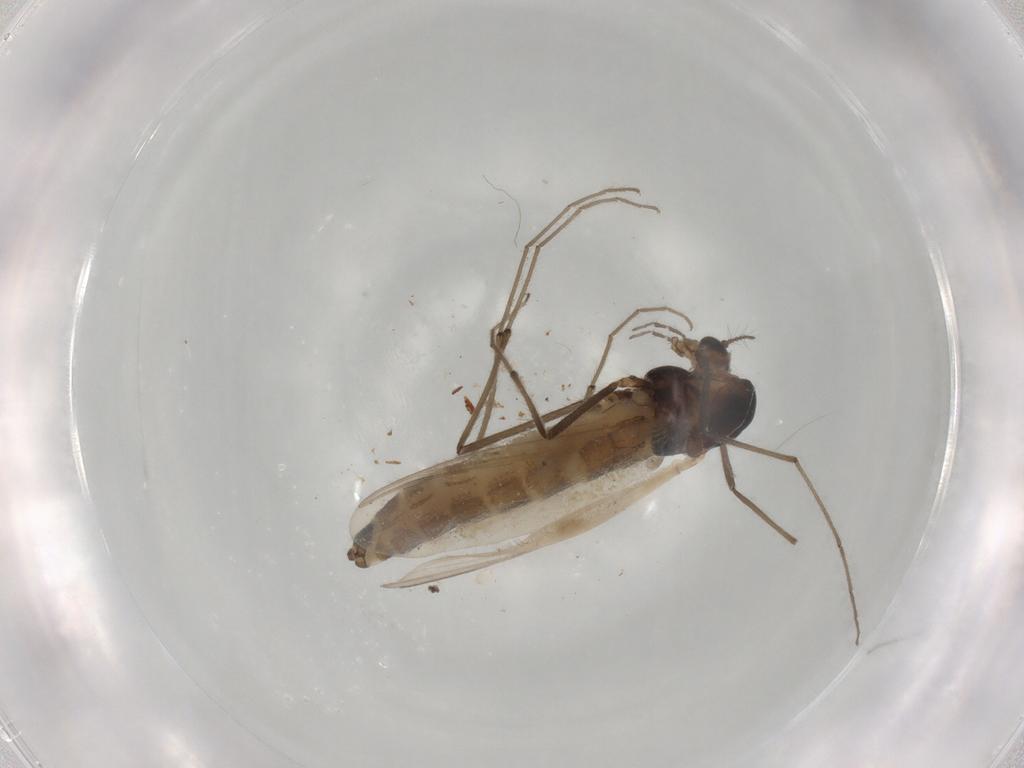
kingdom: Animalia
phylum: Arthropoda
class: Insecta
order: Diptera
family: Chironomidae
